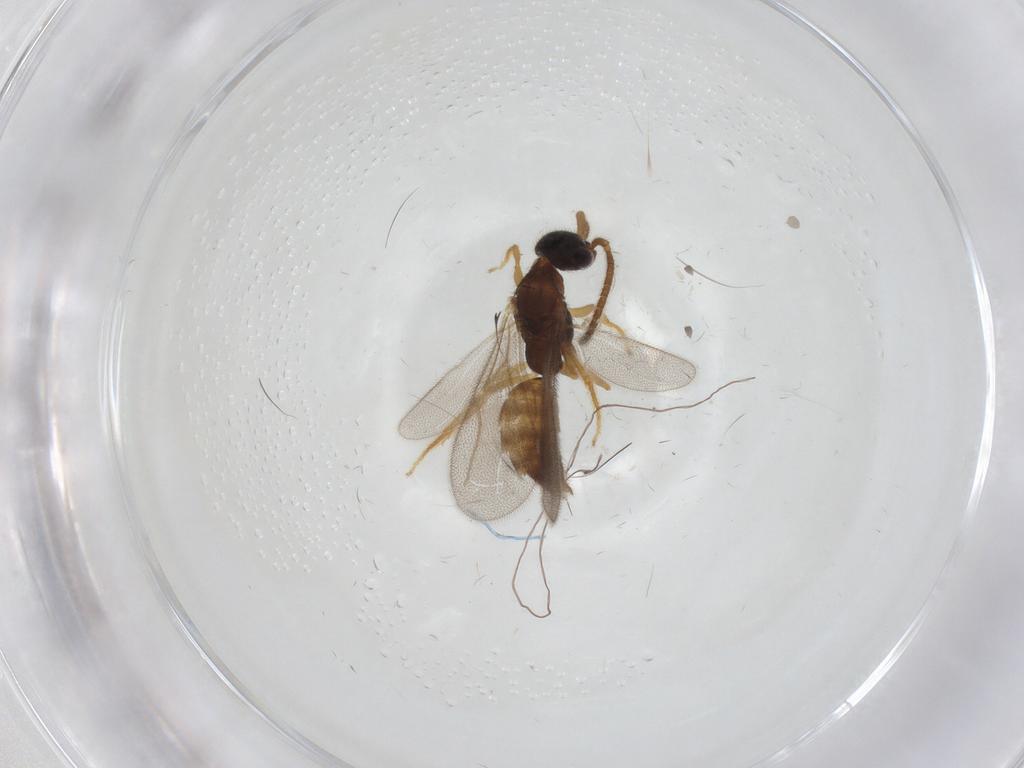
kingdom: Animalia
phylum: Arthropoda
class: Insecta
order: Hymenoptera
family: Bethylidae
